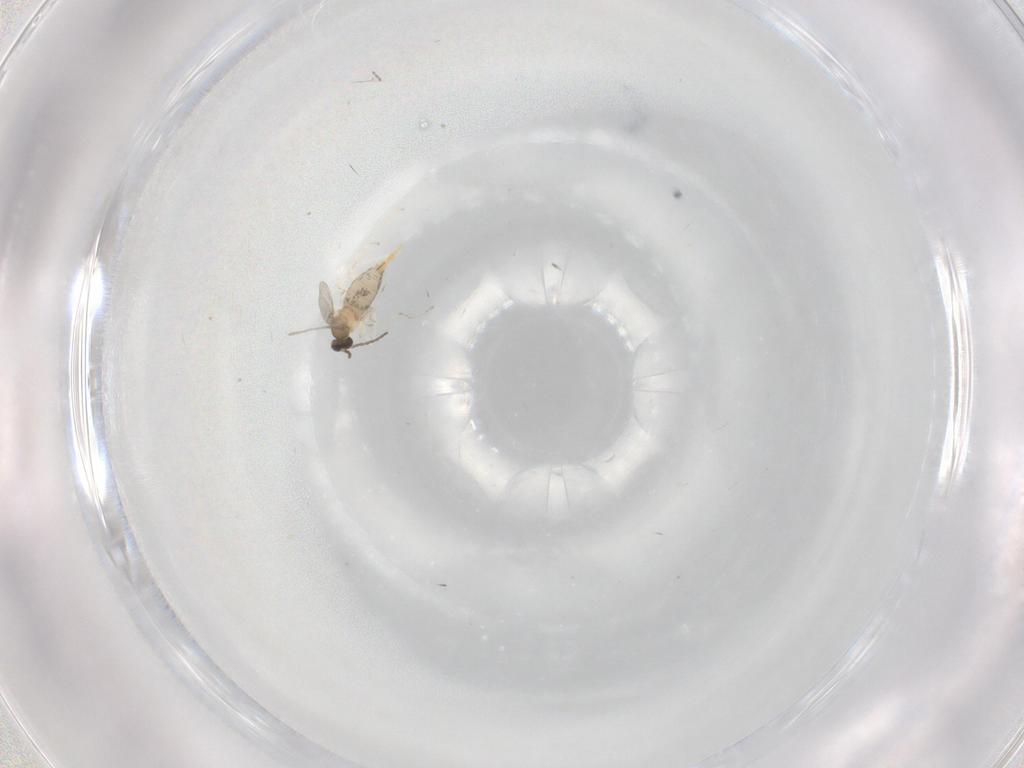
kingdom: Animalia
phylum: Arthropoda
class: Insecta
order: Diptera
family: Cecidomyiidae
